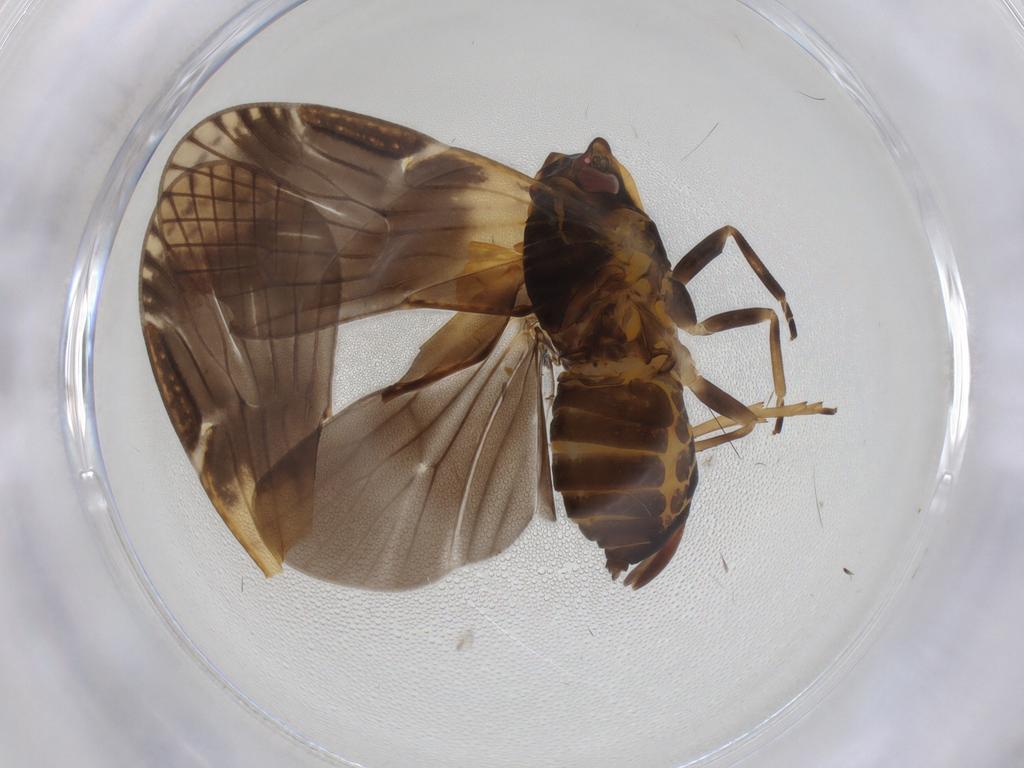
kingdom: Animalia
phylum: Arthropoda
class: Insecta
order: Hemiptera
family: Cixiidae
